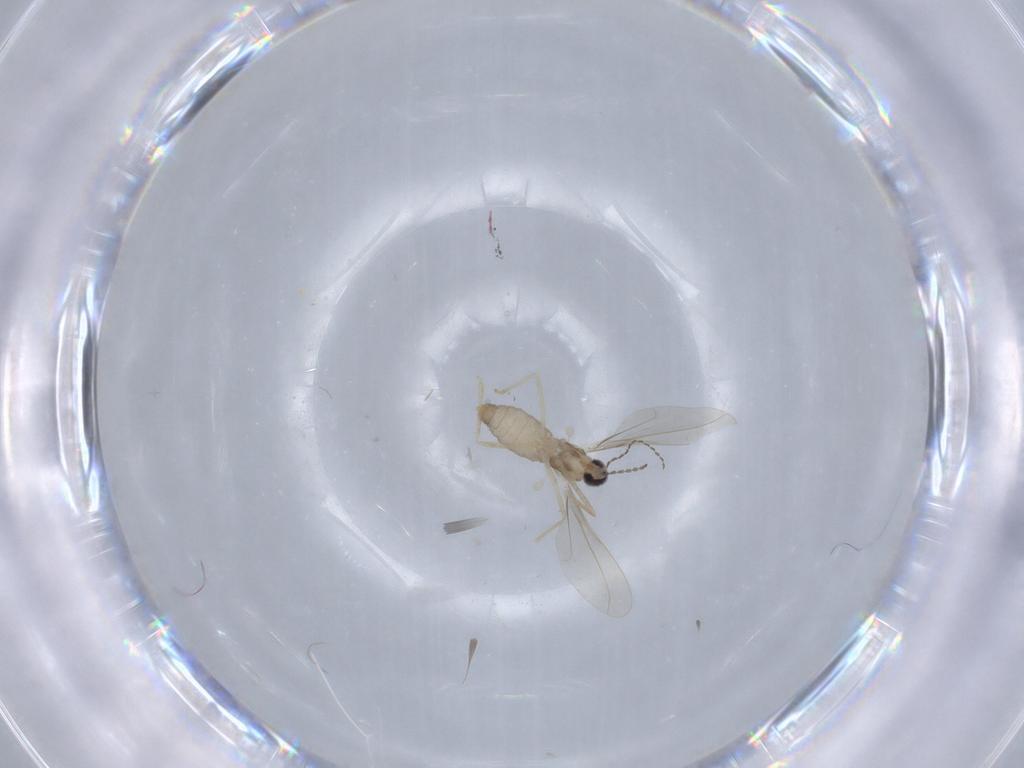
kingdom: Animalia
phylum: Arthropoda
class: Insecta
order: Diptera
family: Cecidomyiidae
